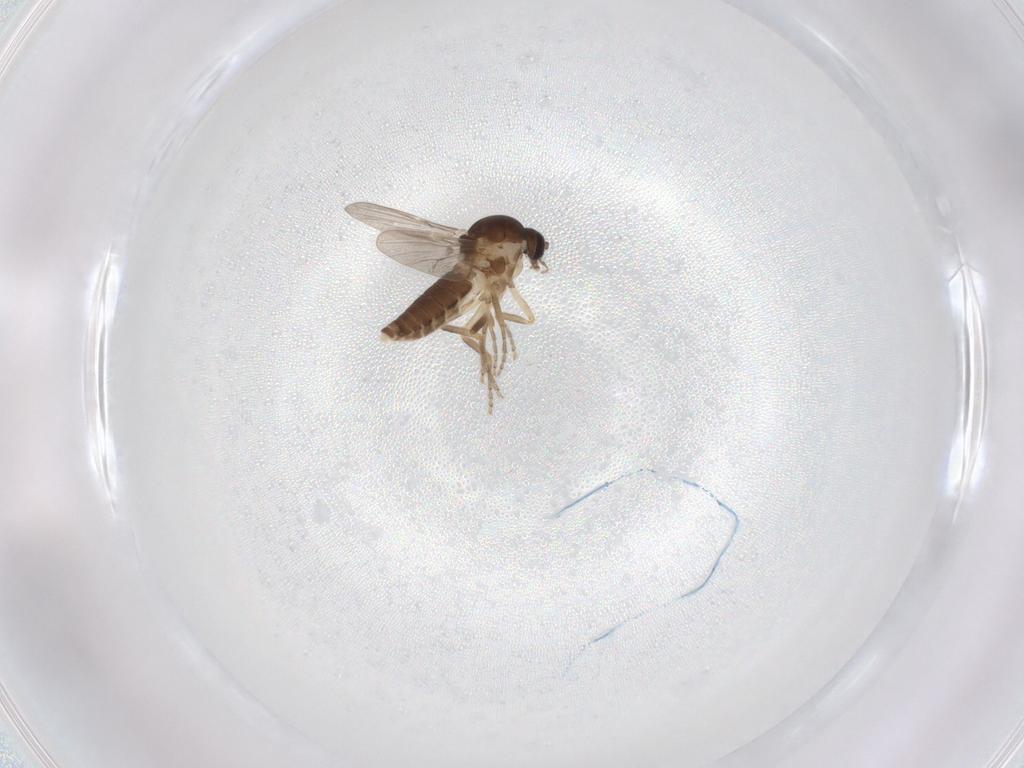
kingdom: Animalia
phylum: Arthropoda
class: Insecta
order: Diptera
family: Ceratopogonidae
